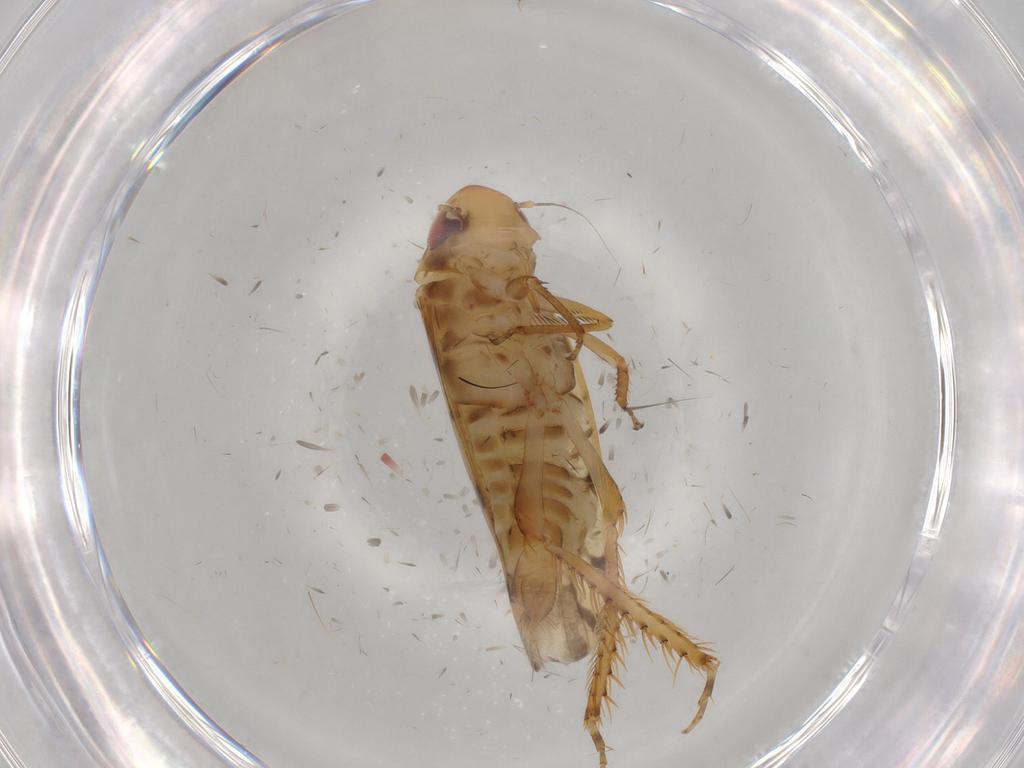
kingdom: Animalia
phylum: Arthropoda
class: Insecta
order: Hemiptera
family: Cicadellidae
